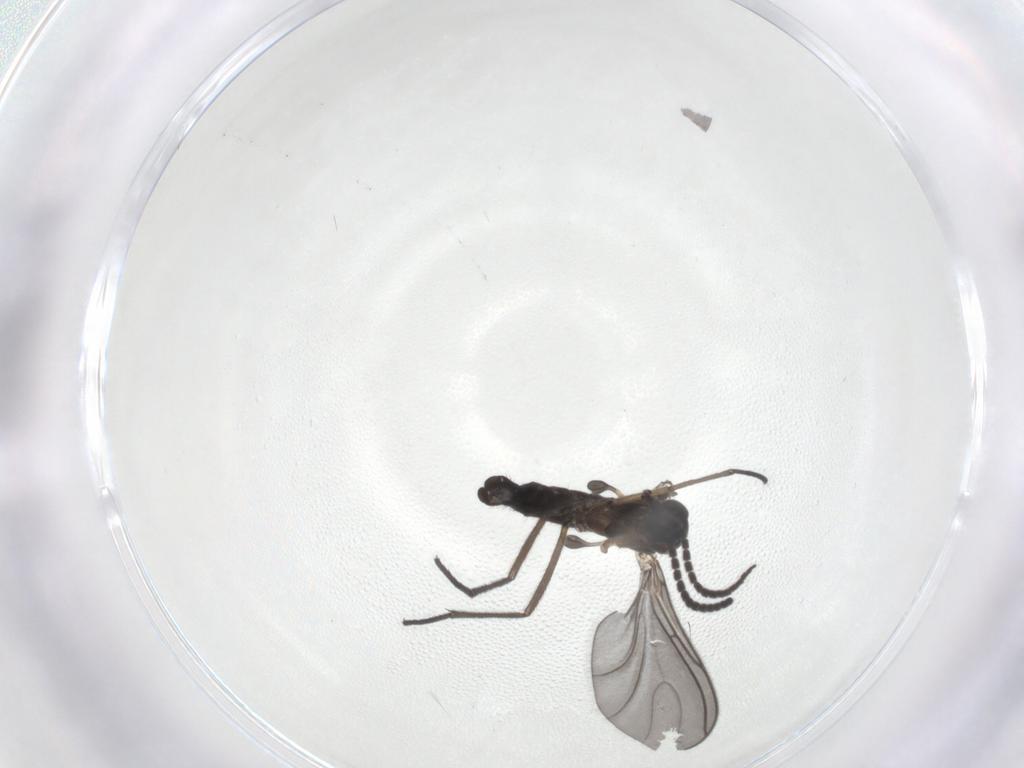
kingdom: Animalia
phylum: Arthropoda
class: Insecta
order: Diptera
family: Sciaridae
